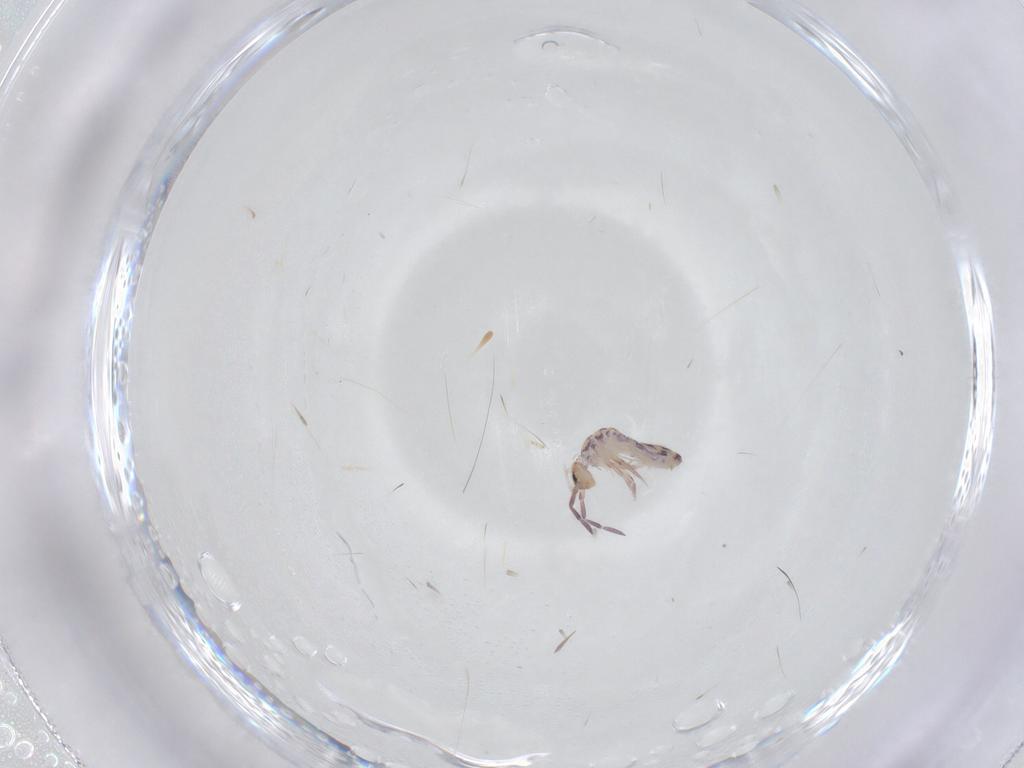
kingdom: Animalia
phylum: Arthropoda
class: Collembola
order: Entomobryomorpha
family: Entomobryidae
